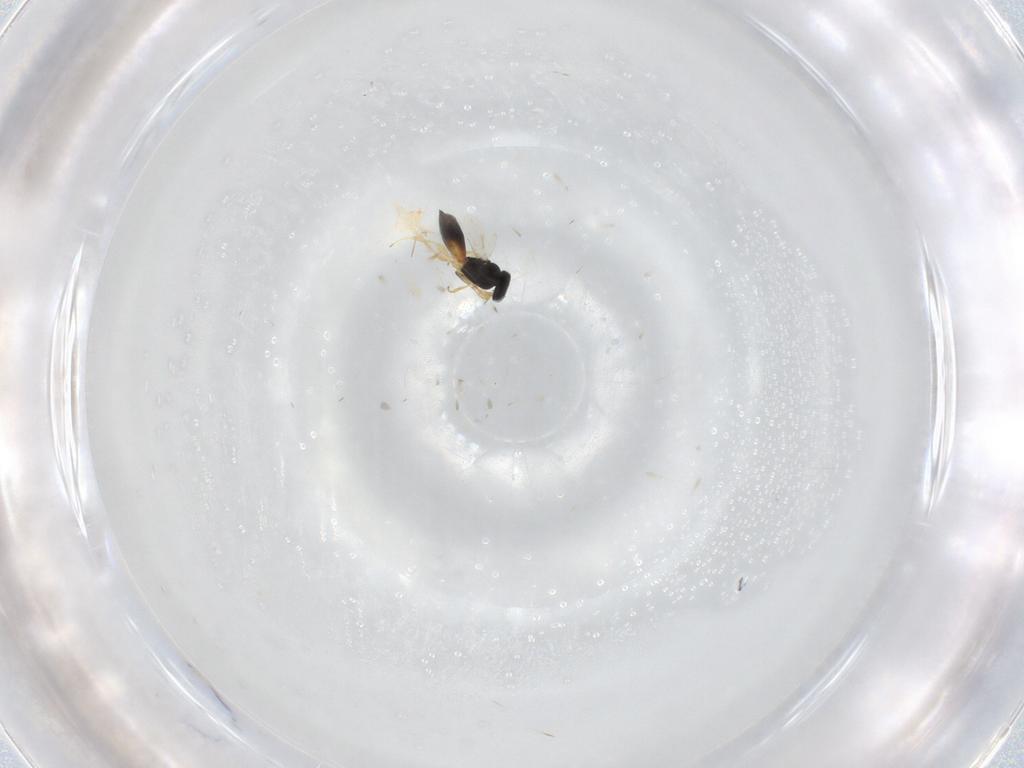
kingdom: Animalia
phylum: Arthropoda
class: Insecta
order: Hymenoptera
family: Scelionidae
